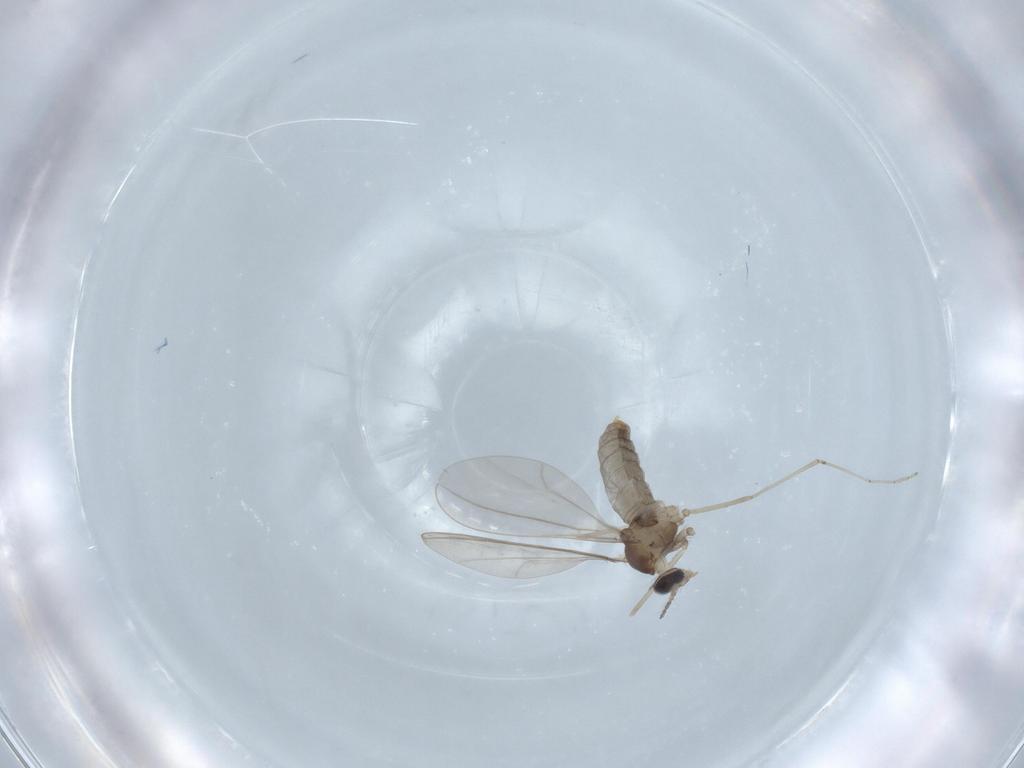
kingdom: Animalia
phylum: Arthropoda
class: Insecta
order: Diptera
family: Cecidomyiidae
